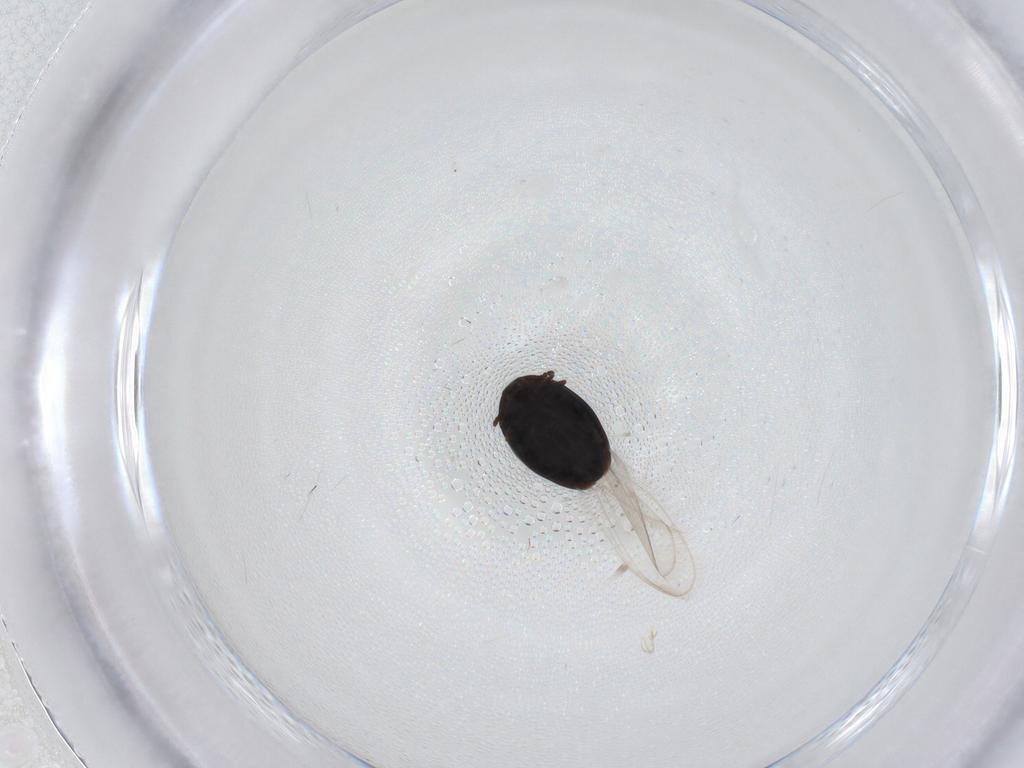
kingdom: Animalia
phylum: Arthropoda
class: Insecta
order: Coleoptera
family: Corylophidae
